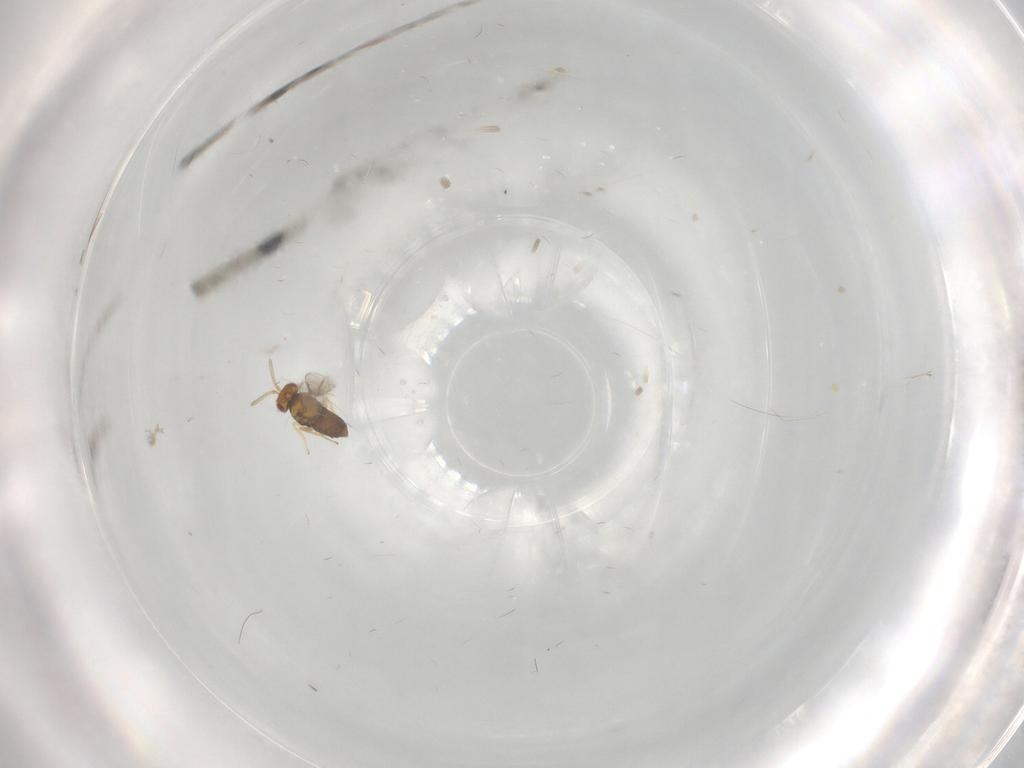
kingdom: Animalia
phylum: Arthropoda
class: Insecta
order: Hymenoptera
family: Aphelinidae
